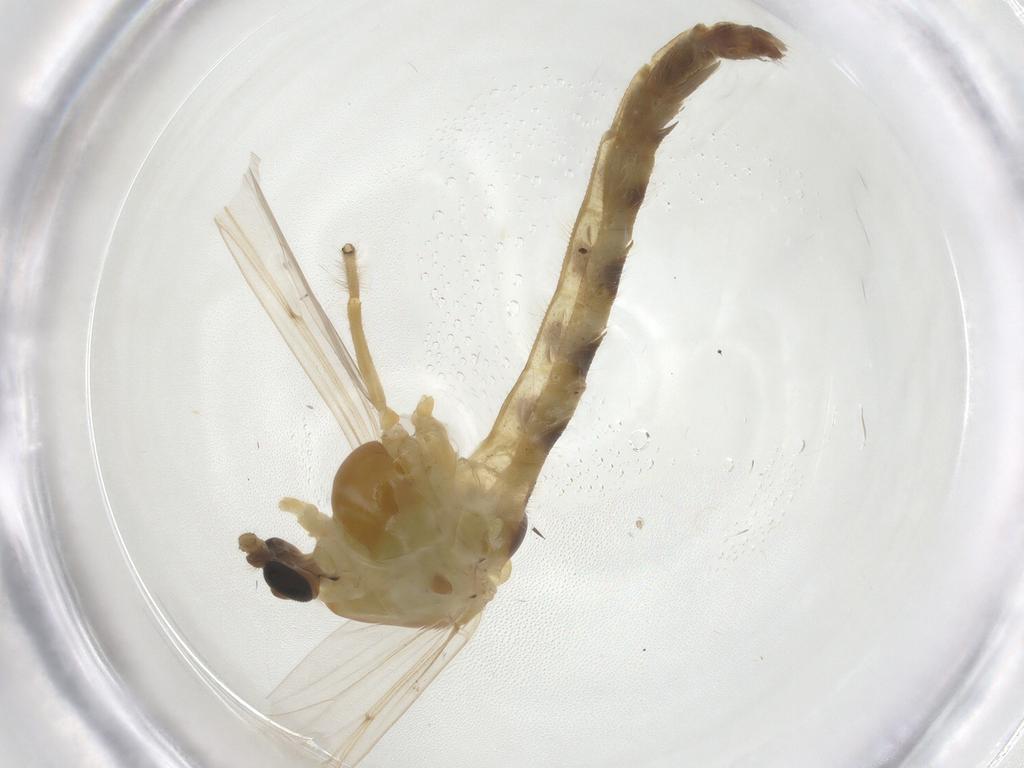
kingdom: Animalia
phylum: Arthropoda
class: Insecta
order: Diptera
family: Chironomidae
